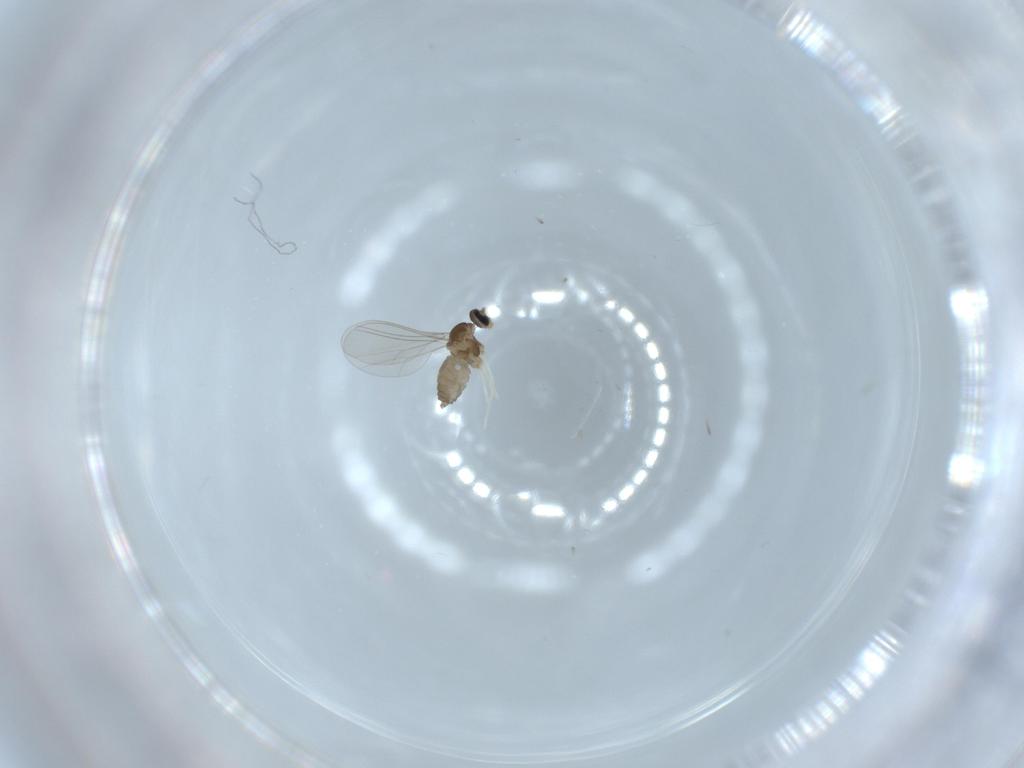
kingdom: Animalia
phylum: Arthropoda
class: Insecta
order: Diptera
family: Cecidomyiidae
